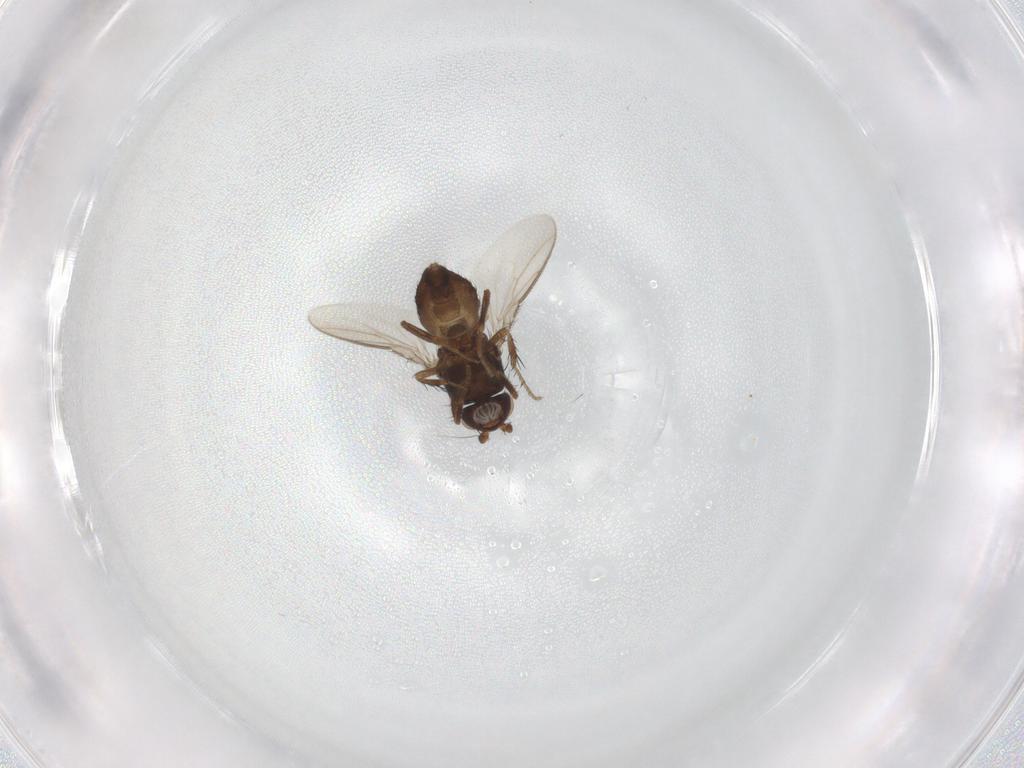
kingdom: Animalia
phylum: Arthropoda
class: Insecta
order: Diptera
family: Sphaeroceridae
